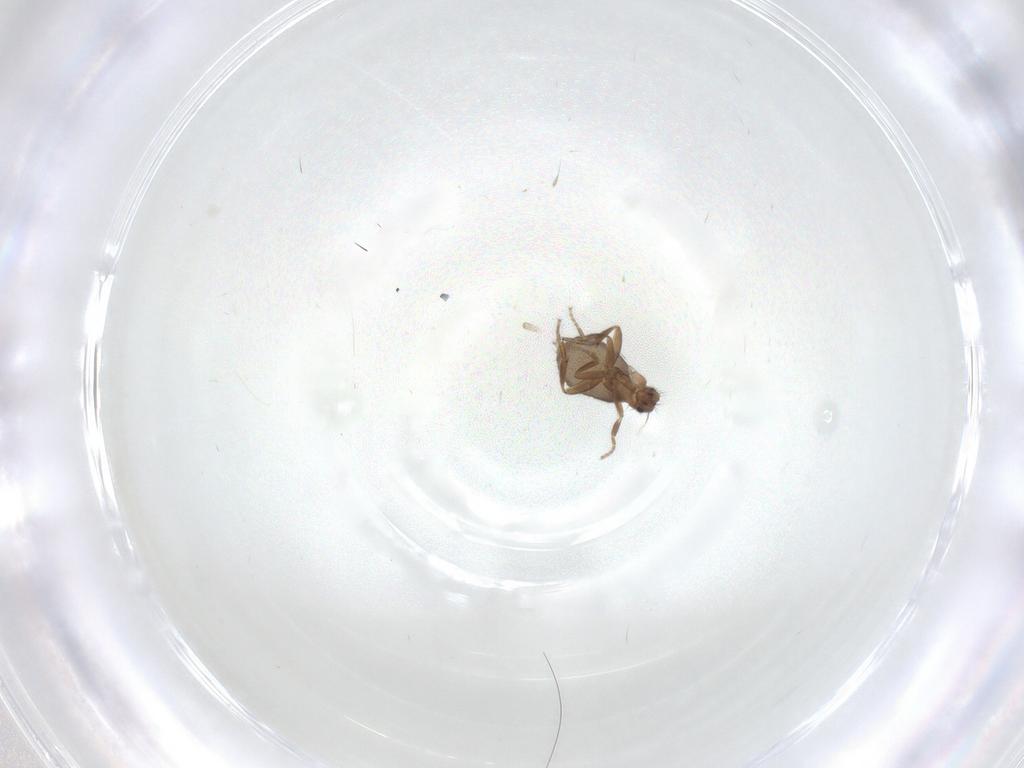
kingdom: Animalia
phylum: Arthropoda
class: Insecta
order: Diptera
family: Phoridae
